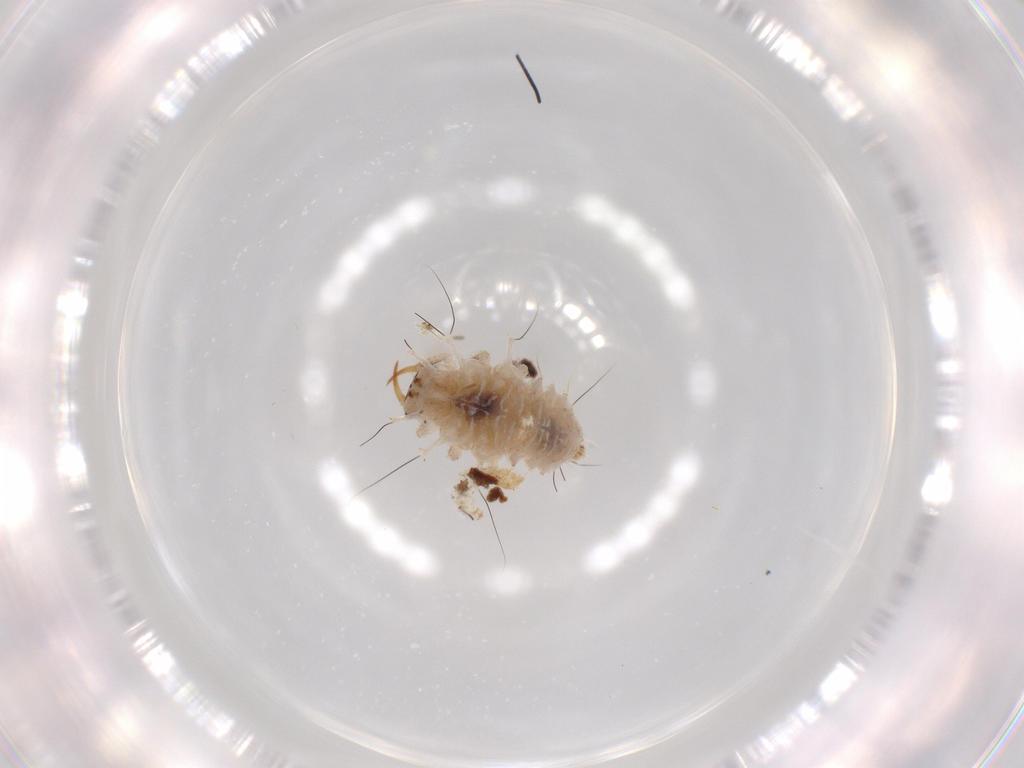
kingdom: Animalia
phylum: Arthropoda
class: Insecta
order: Neuroptera
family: Chrysopidae
